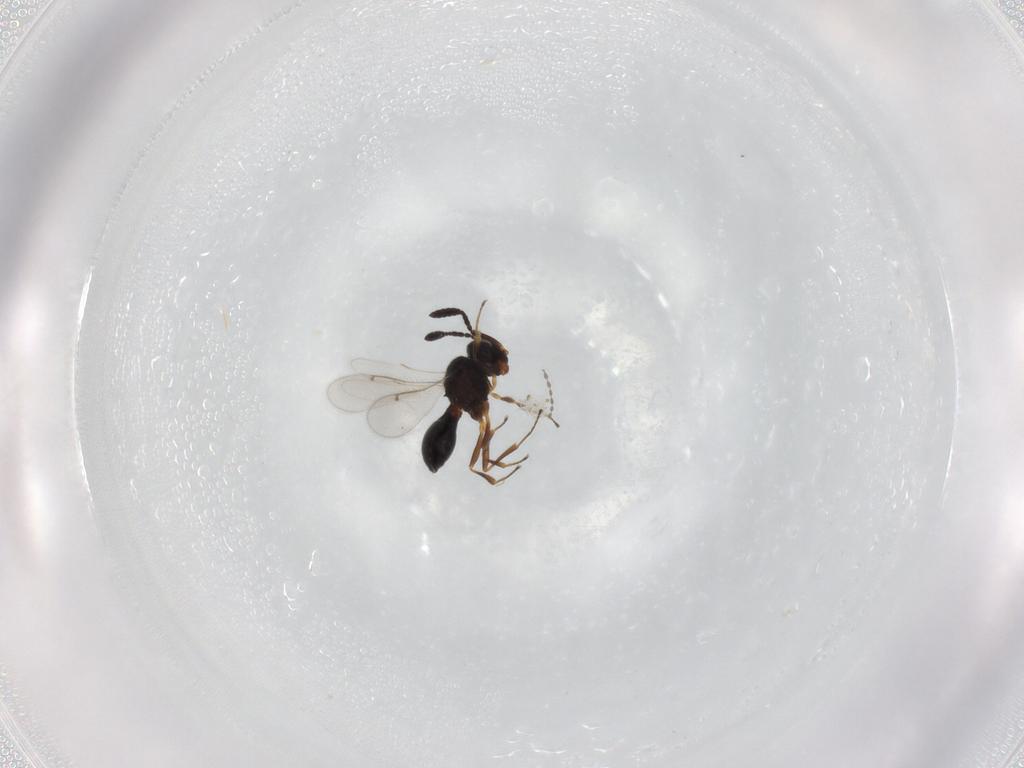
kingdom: Animalia
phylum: Arthropoda
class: Insecta
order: Hymenoptera
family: Scelionidae
